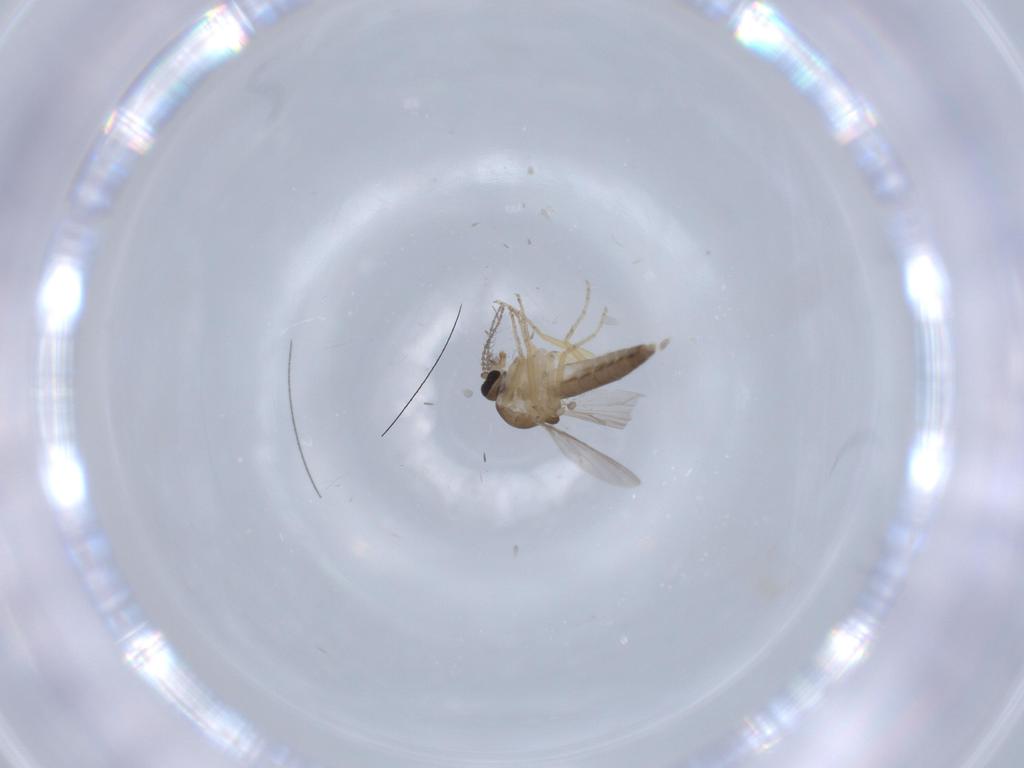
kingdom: Animalia
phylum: Arthropoda
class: Insecta
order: Diptera
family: Ceratopogonidae
